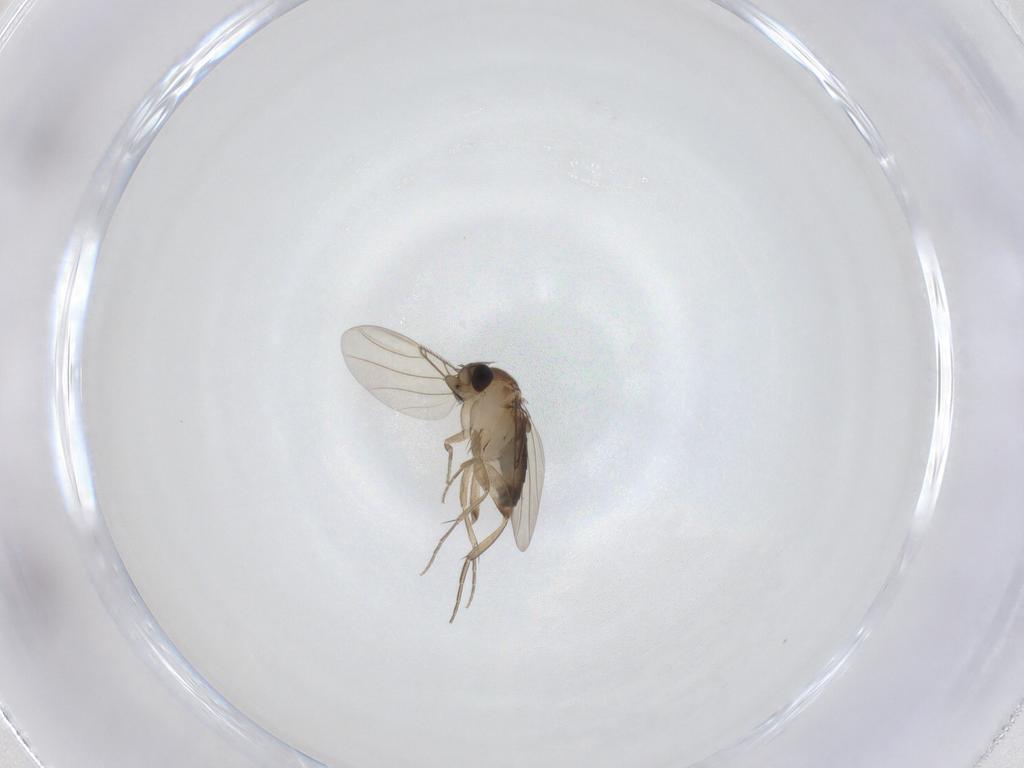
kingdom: Animalia
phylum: Arthropoda
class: Insecta
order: Diptera
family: Phoridae
